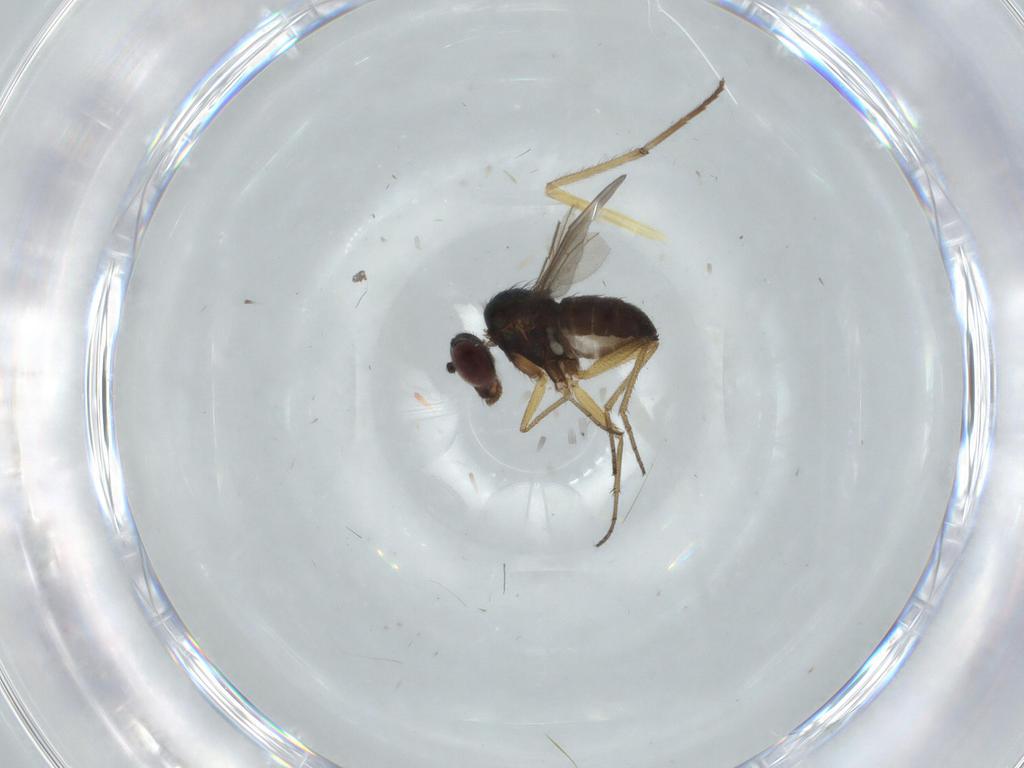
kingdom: Animalia
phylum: Arthropoda
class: Insecta
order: Diptera
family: Dolichopodidae
